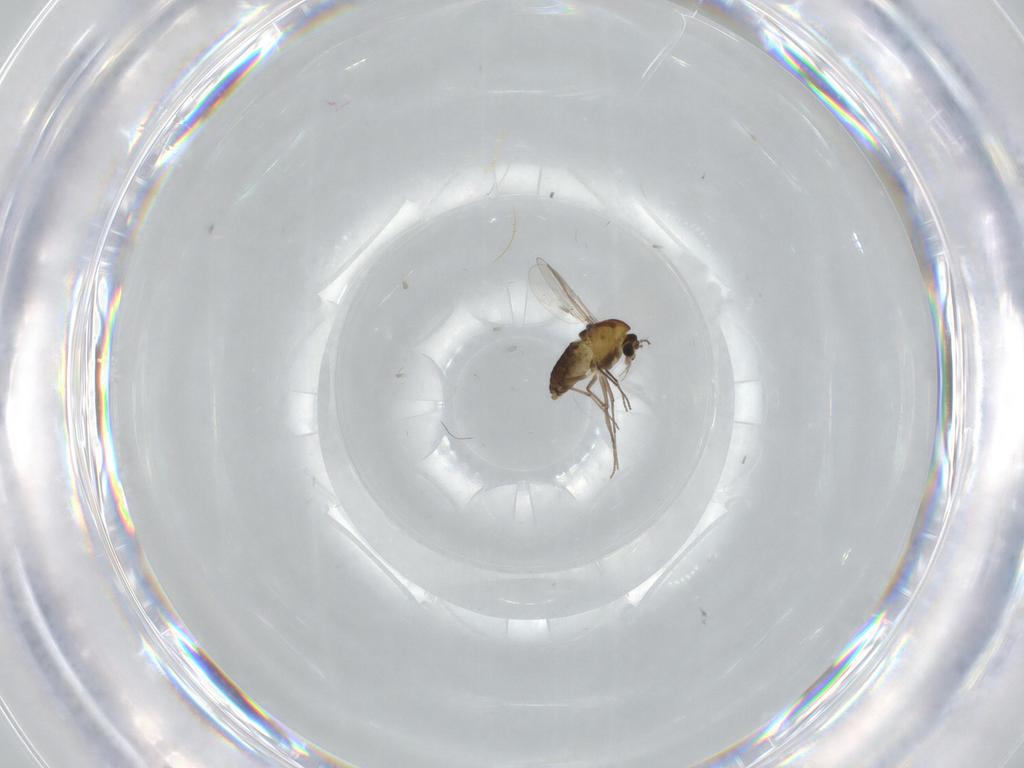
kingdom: Animalia
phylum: Arthropoda
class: Insecta
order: Diptera
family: Chironomidae
